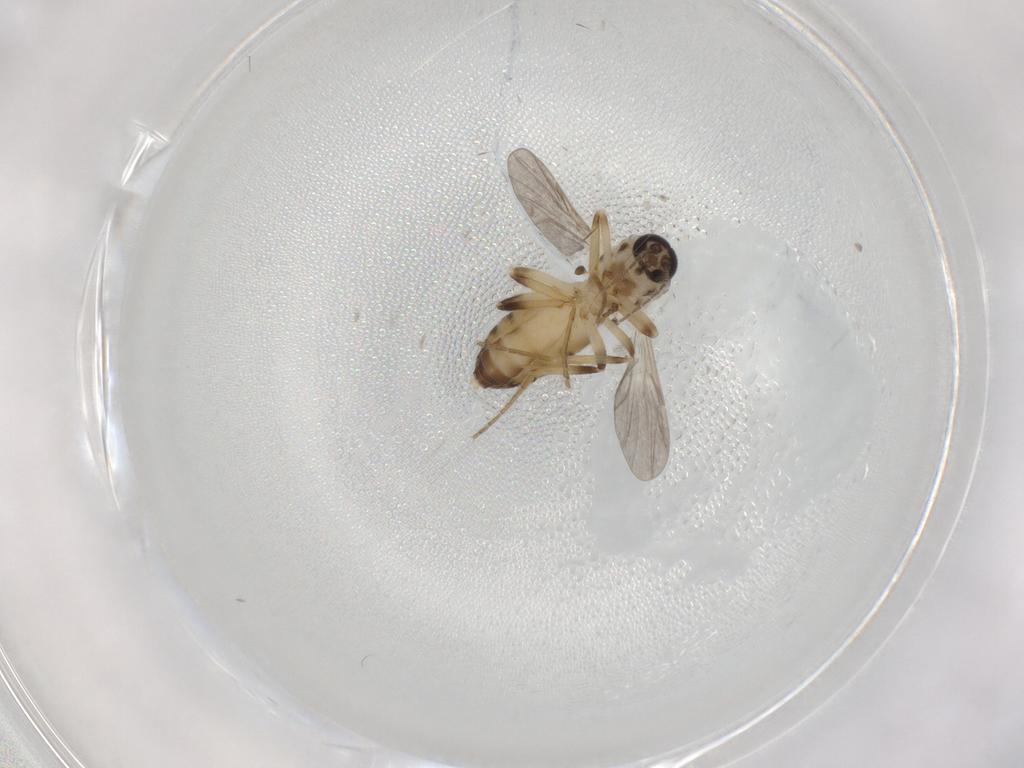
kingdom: Animalia
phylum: Arthropoda
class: Insecta
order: Diptera
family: Ceratopogonidae
